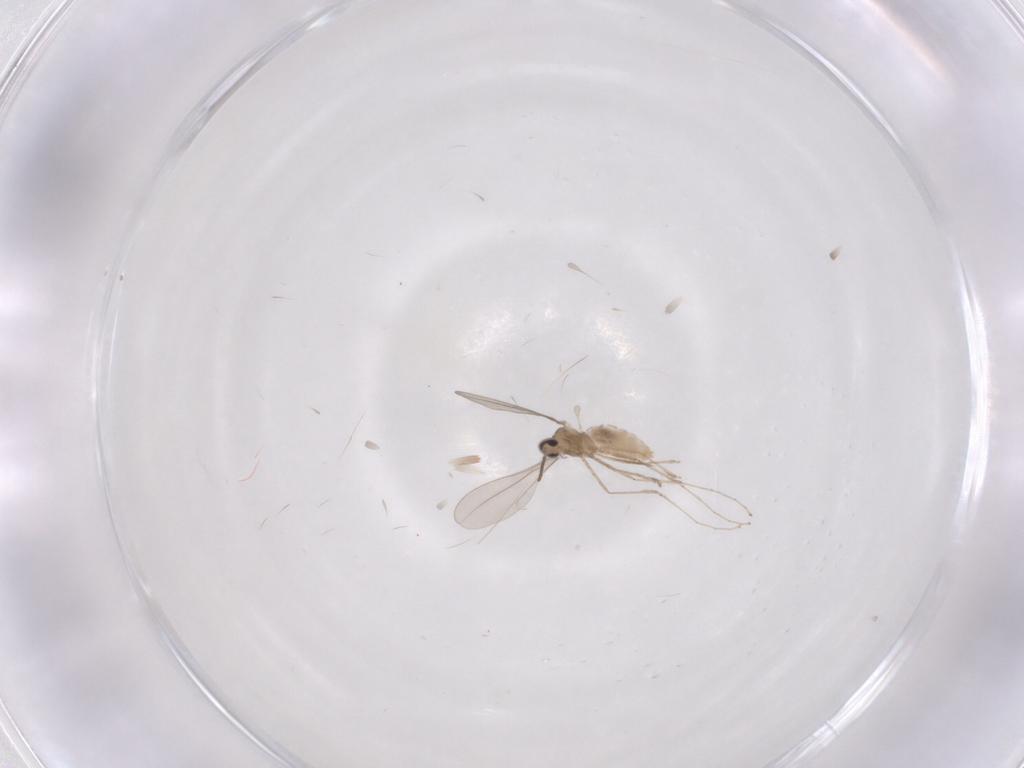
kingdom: Animalia
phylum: Arthropoda
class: Insecta
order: Diptera
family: Cecidomyiidae
